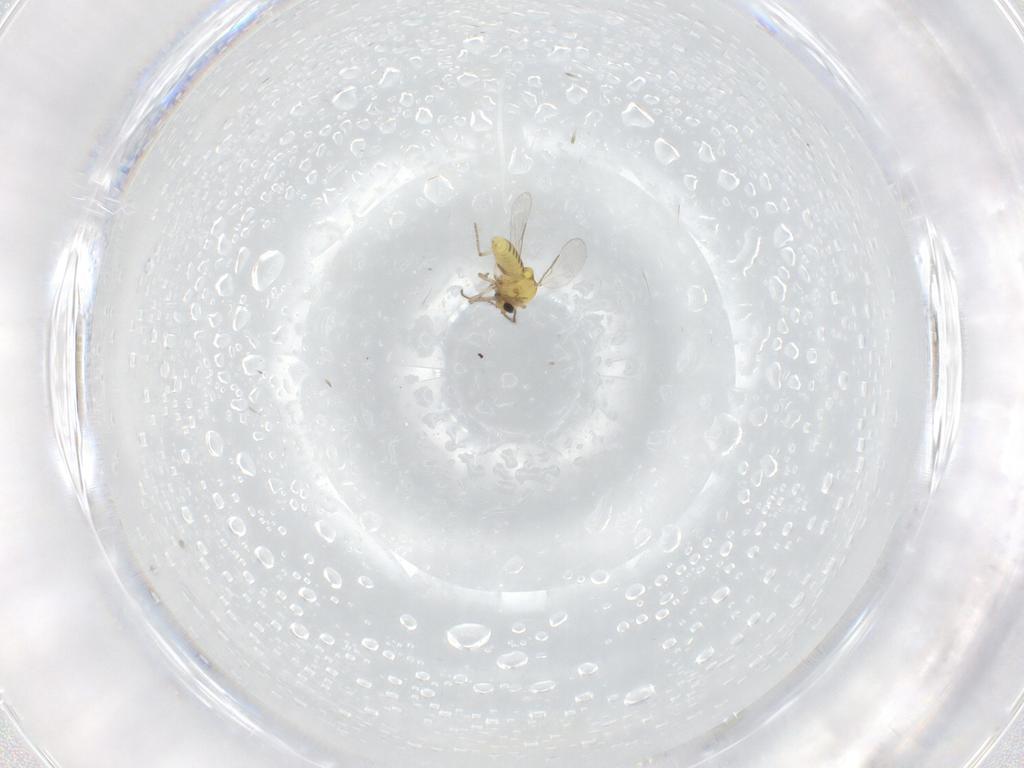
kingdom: Animalia
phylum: Arthropoda
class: Insecta
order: Diptera
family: Ceratopogonidae
